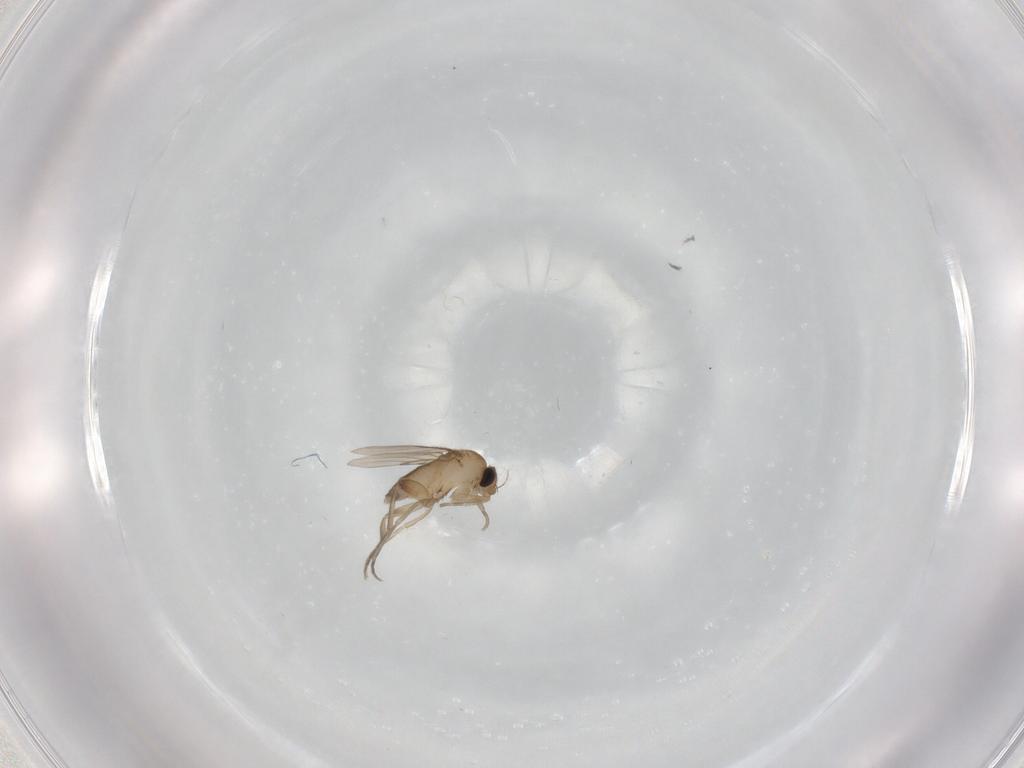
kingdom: Animalia
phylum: Arthropoda
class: Insecta
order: Diptera
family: Phoridae
